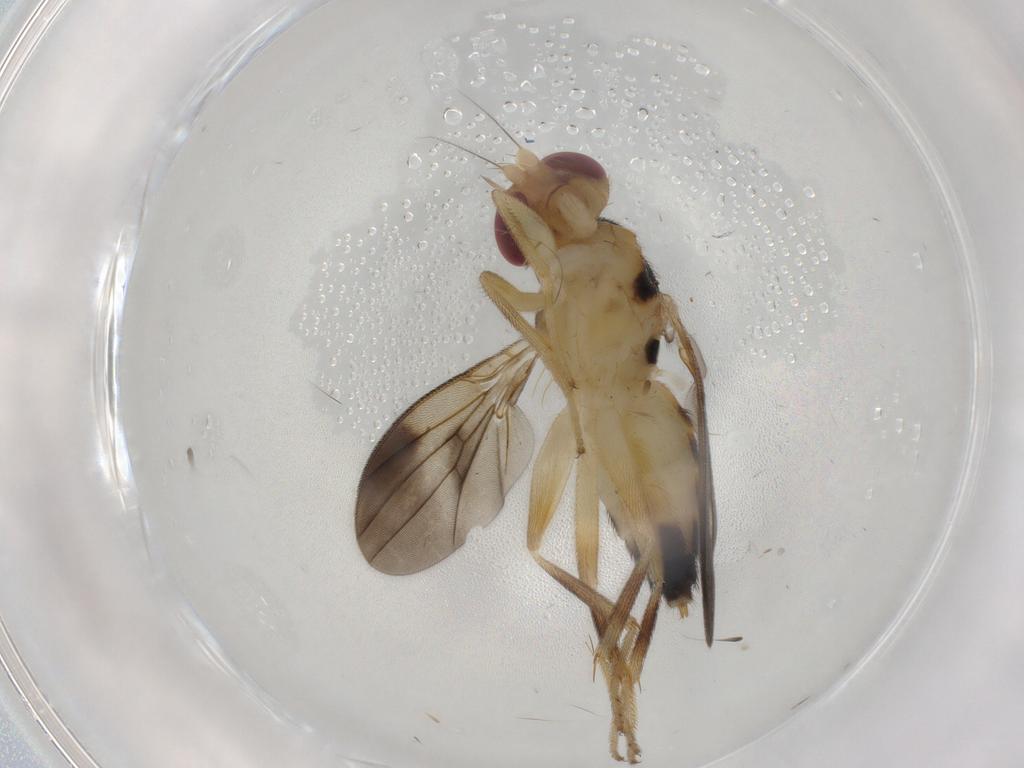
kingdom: Animalia
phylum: Arthropoda
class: Insecta
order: Diptera
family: Clusiidae
